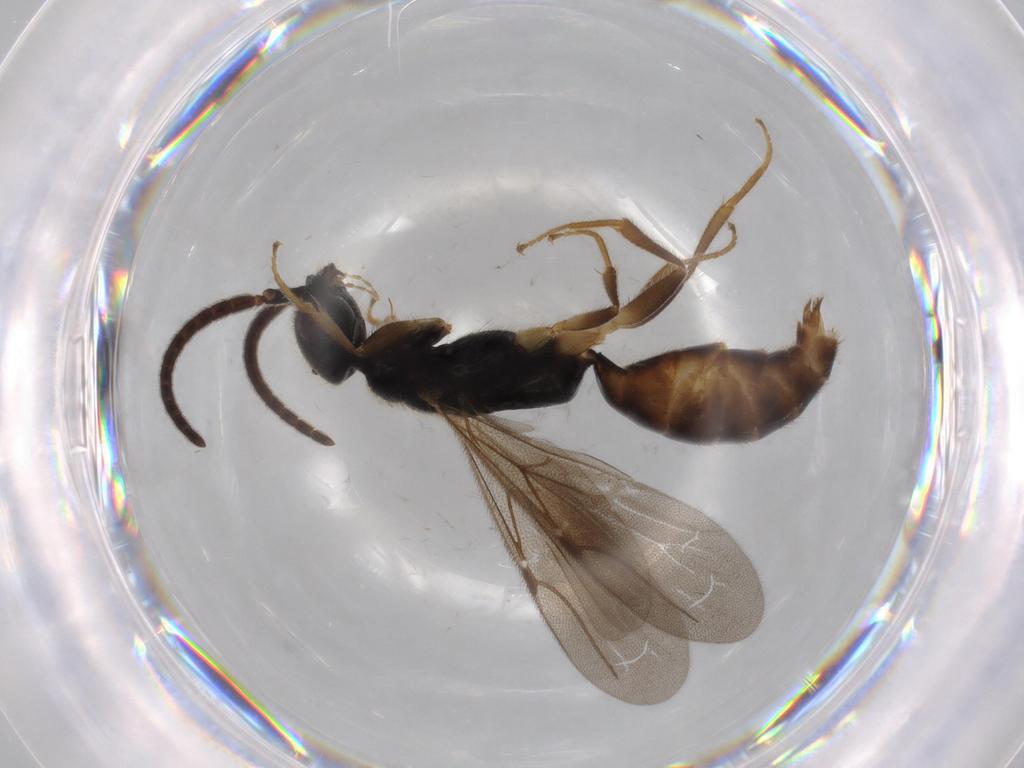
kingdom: Animalia
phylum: Arthropoda
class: Insecta
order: Hymenoptera
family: Bethylidae
